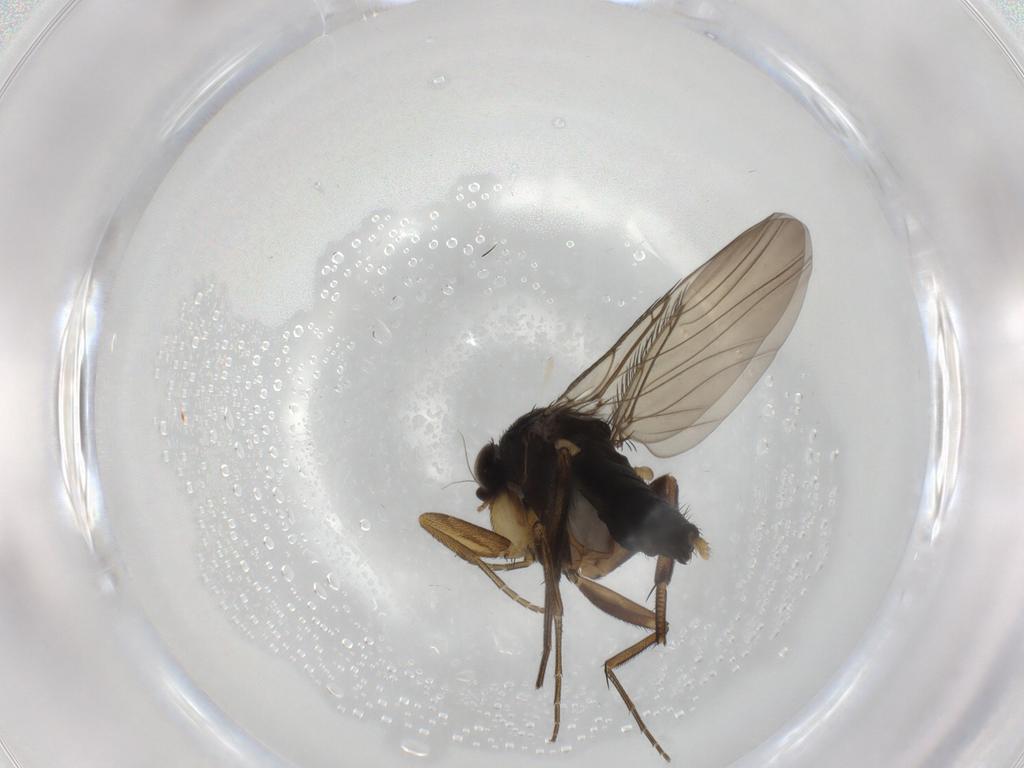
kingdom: Animalia
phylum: Arthropoda
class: Insecta
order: Diptera
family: Phoridae
